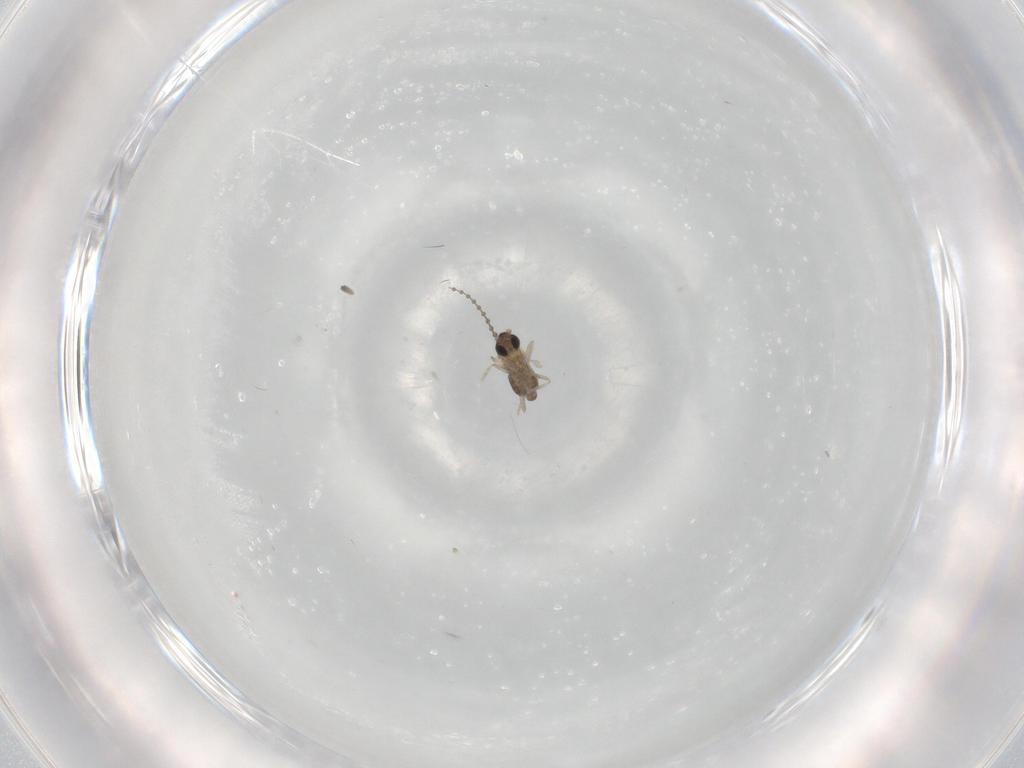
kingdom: Animalia
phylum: Arthropoda
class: Insecta
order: Diptera
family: Cecidomyiidae
